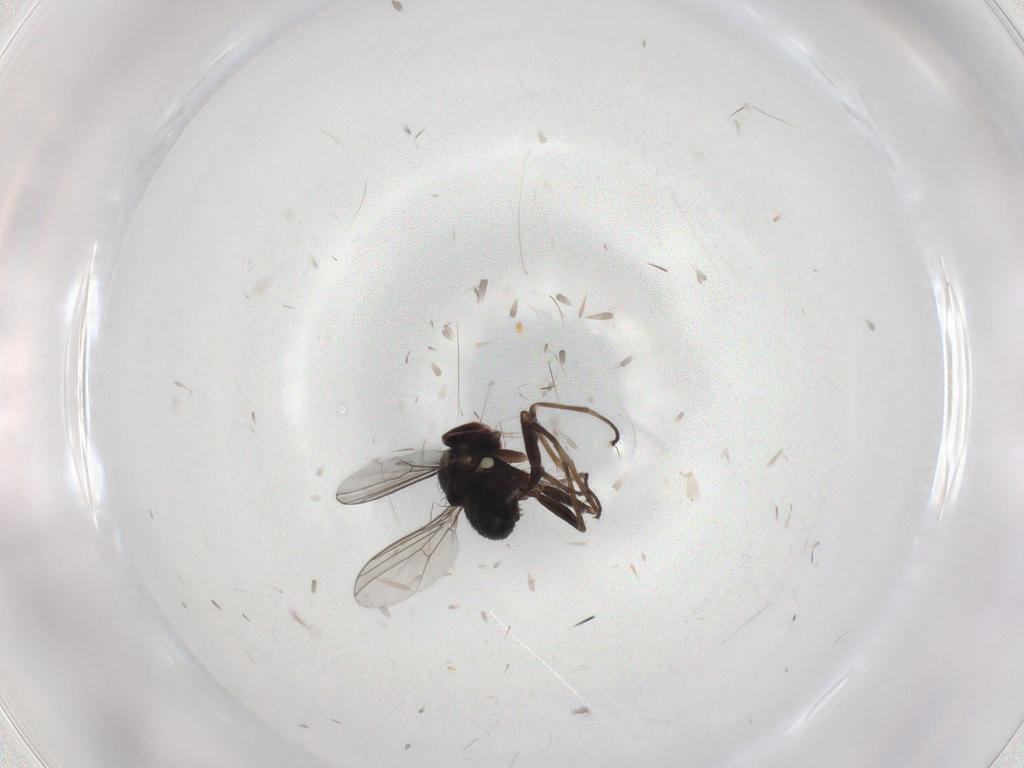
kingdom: Animalia
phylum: Arthropoda
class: Insecta
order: Diptera
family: Dolichopodidae
